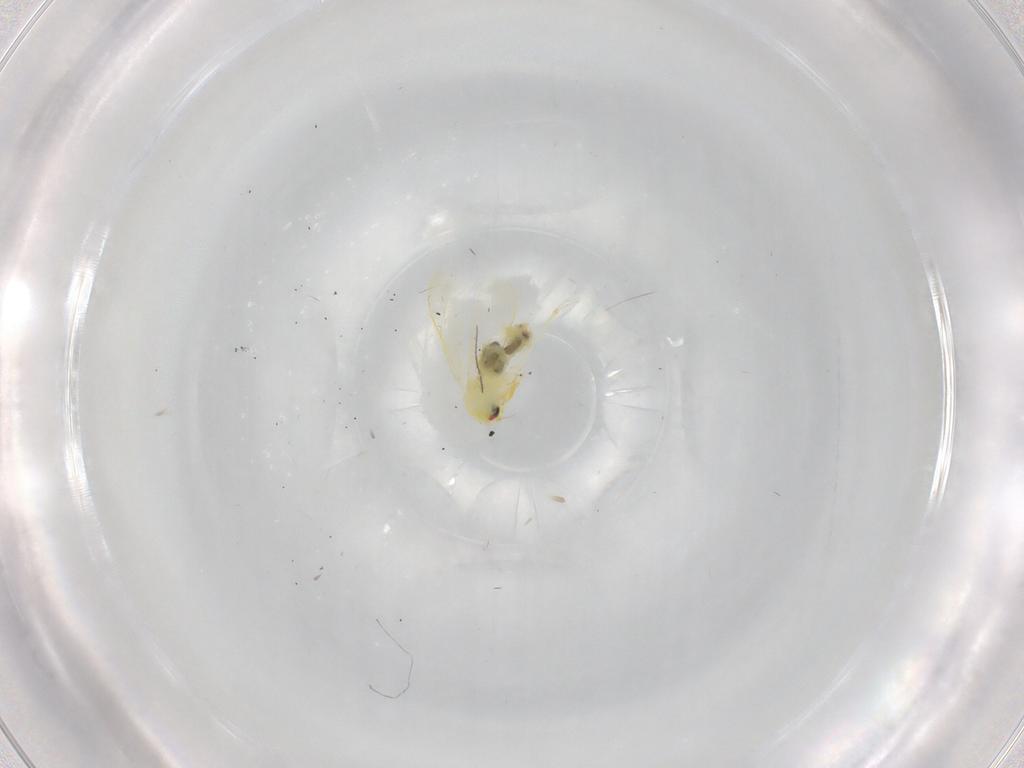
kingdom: Animalia
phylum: Arthropoda
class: Insecta
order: Hemiptera
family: Aleyrodidae
